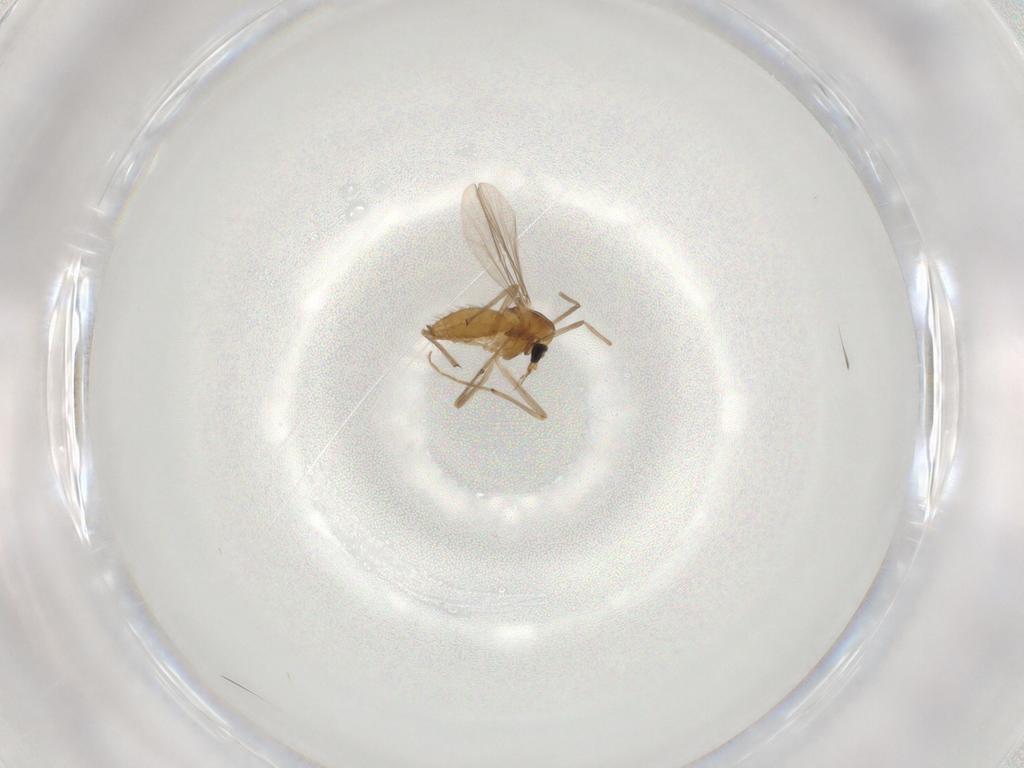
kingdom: Animalia
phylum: Arthropoda
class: Insecta
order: Diptera
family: Chironomidae
